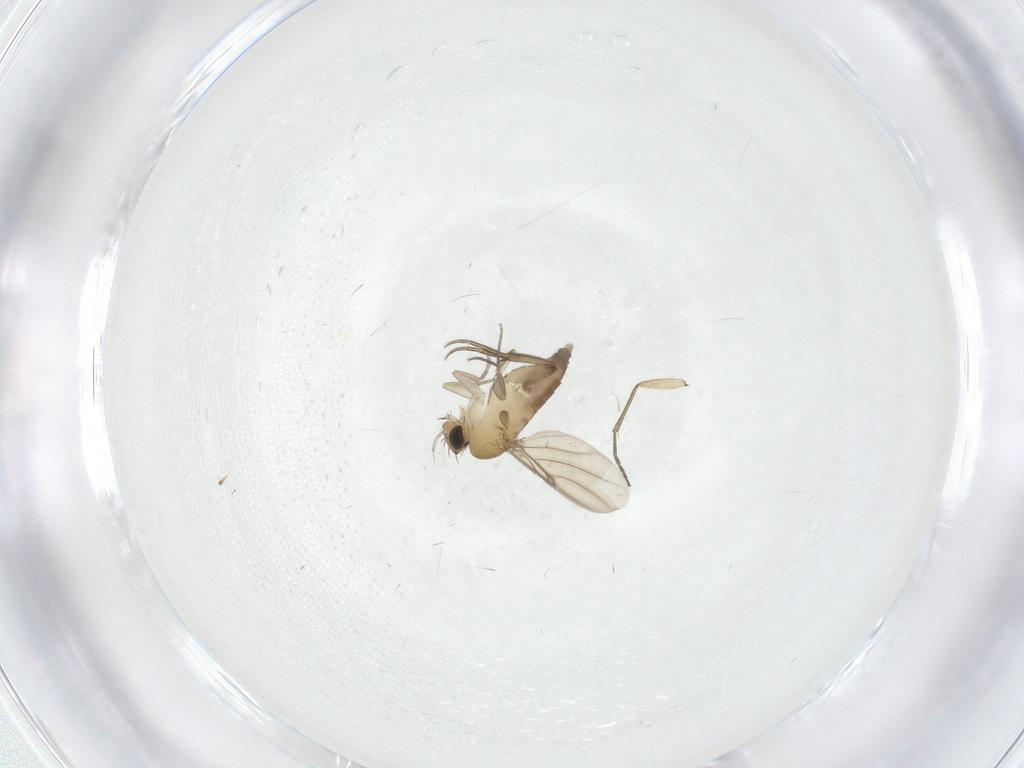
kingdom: Animalia
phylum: Arthropoda
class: Insecta
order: Diptera
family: Phoridae
